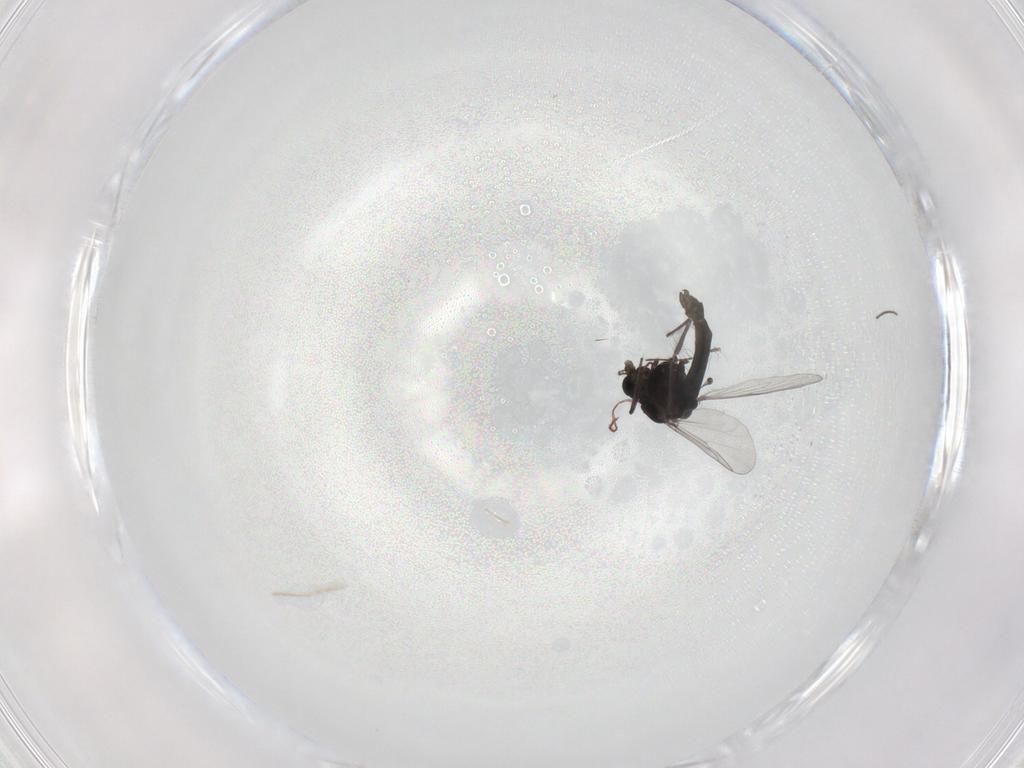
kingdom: Animalia
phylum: Arthropoda
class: Insecta
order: Diptera
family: Chironomidae
